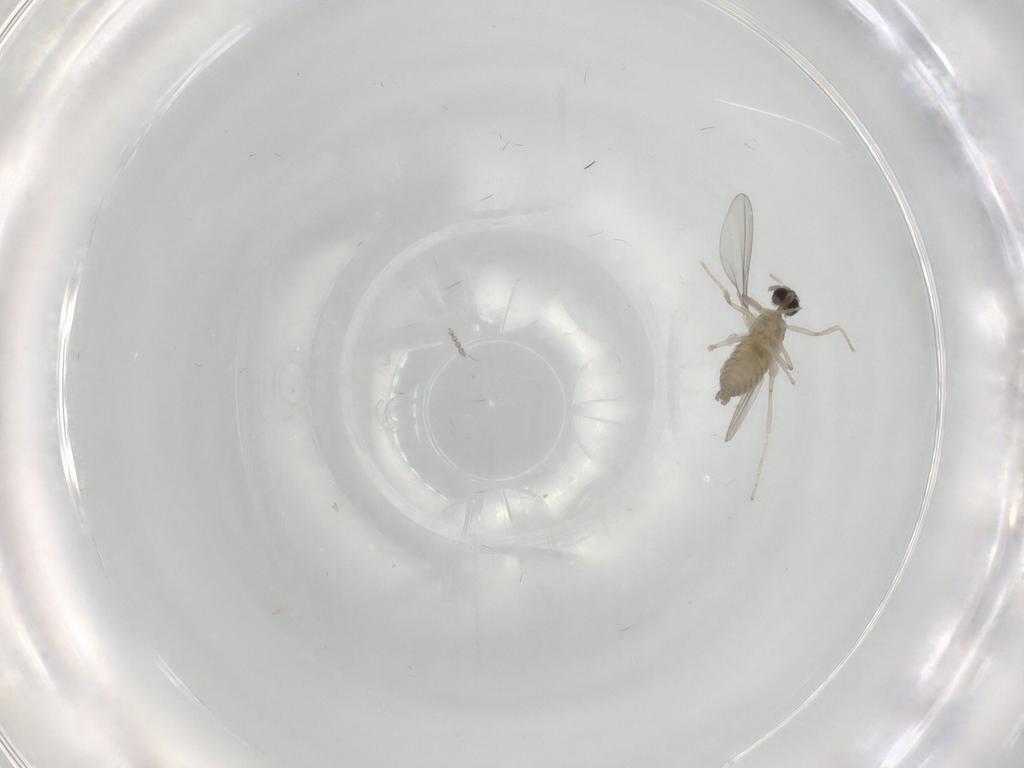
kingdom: Animalia
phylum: Arthropoda
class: Insecta
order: Diptera
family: Cecidomyiidae
